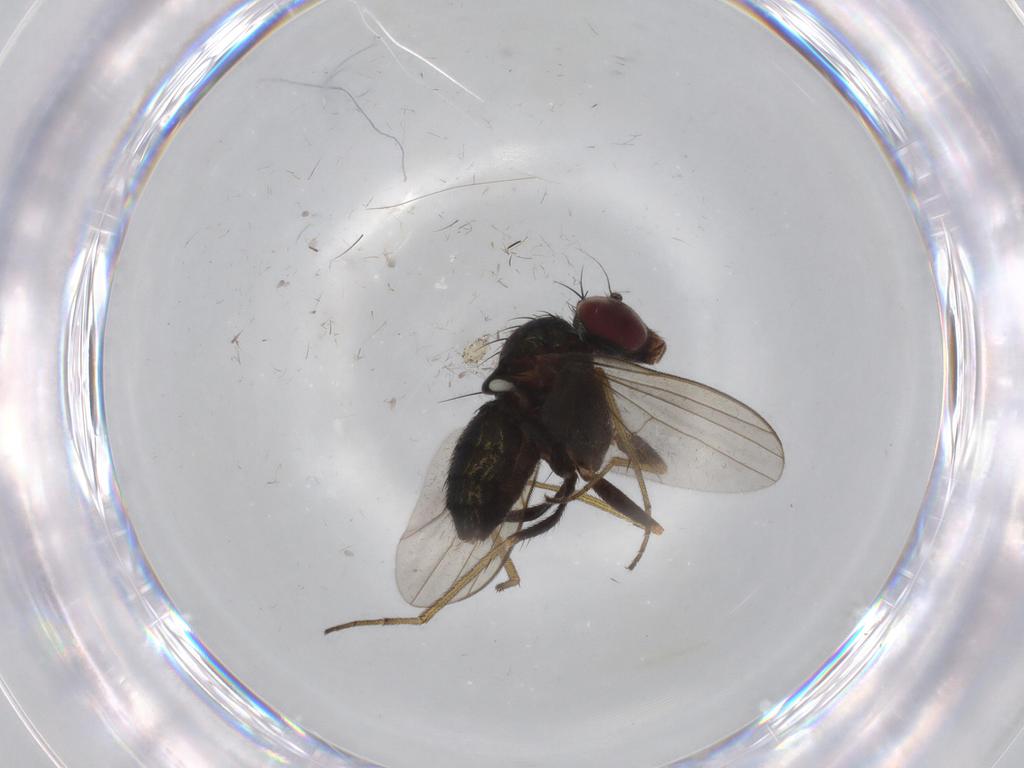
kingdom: Animalia
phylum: Arthropoda
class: Insecta
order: Diptera
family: Dolichopodidae
